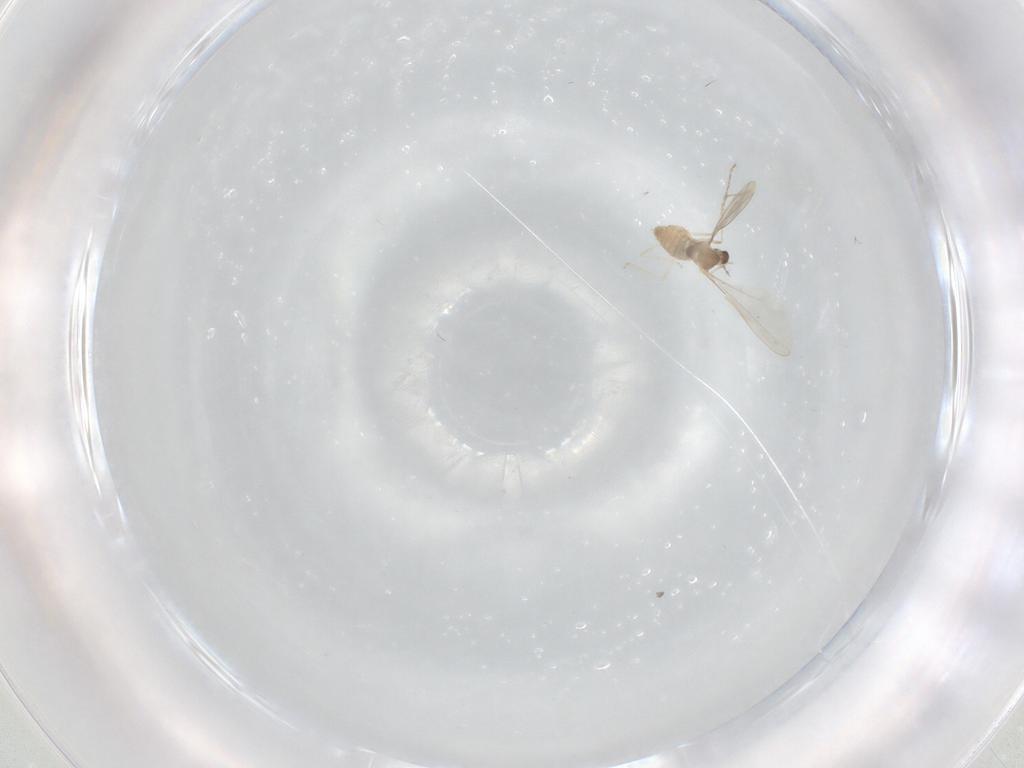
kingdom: Animalia
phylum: Arthropoda
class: Insecta
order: Diptera
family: Cecidomyiidae
